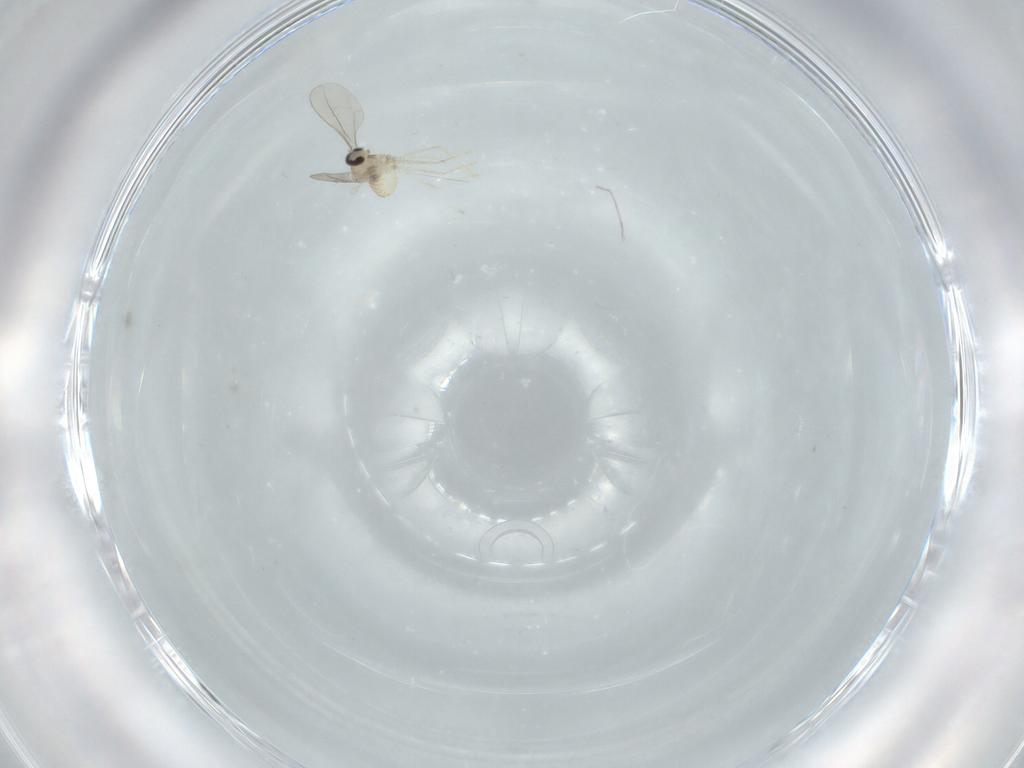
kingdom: Animalia
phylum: Arthropoda
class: Insecta
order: Diptera
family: Cecidomyiidae
